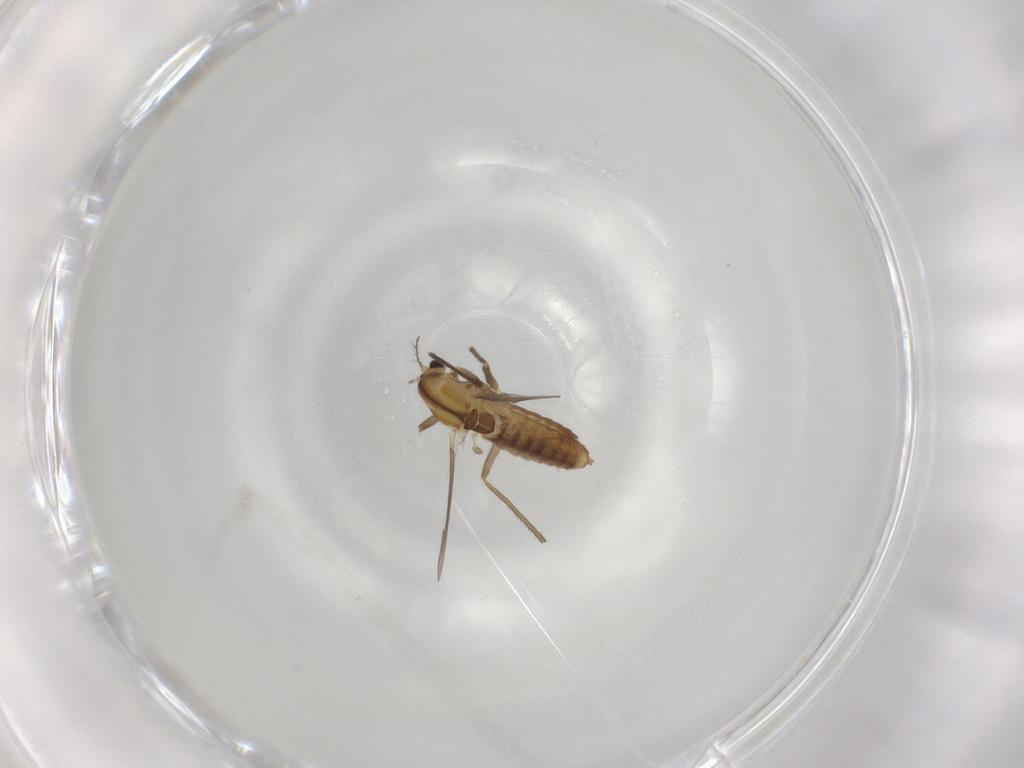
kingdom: Animalia
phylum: Arthropoda
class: Insecta
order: Diptera
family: Chironomidae
